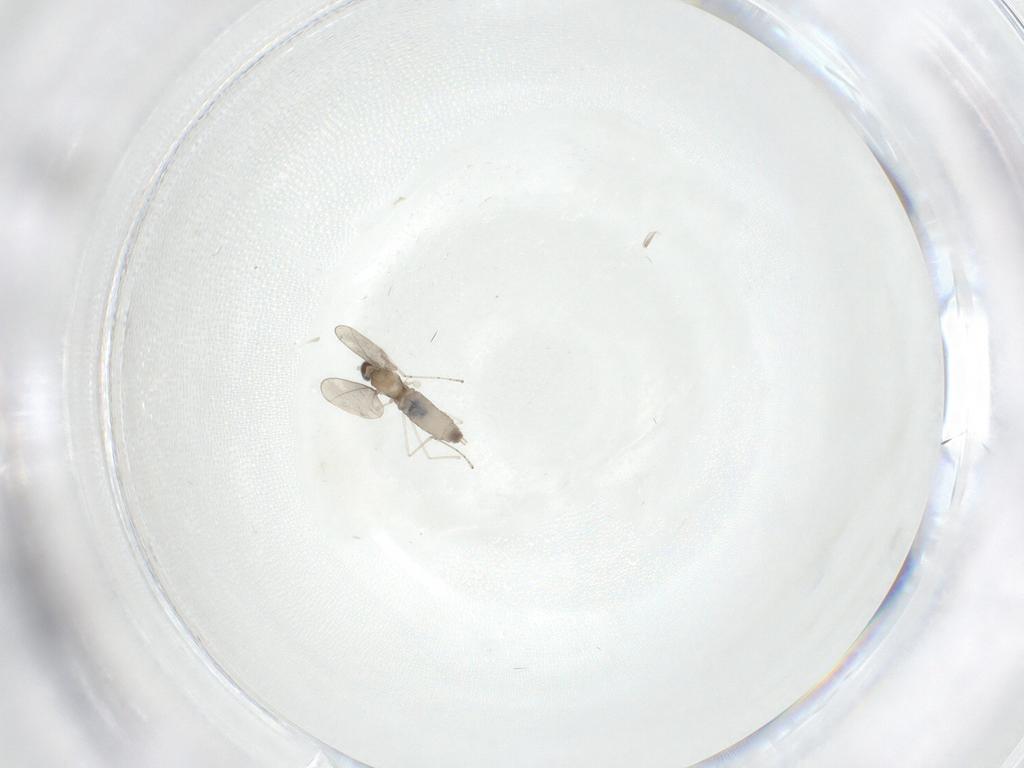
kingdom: Animalia
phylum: Arthropoda
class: Insecta
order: Diptera
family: Cecidomyiidae
